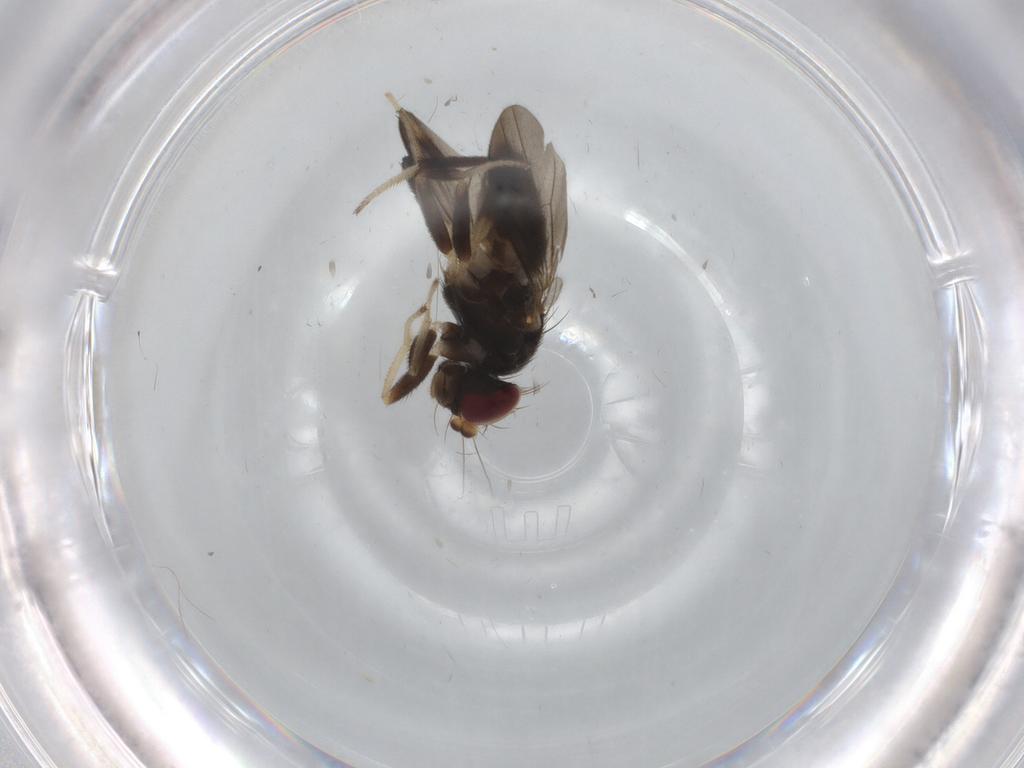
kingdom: Animalia
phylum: Arthropoda
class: Insecta
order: Diptera
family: Clusiidae
